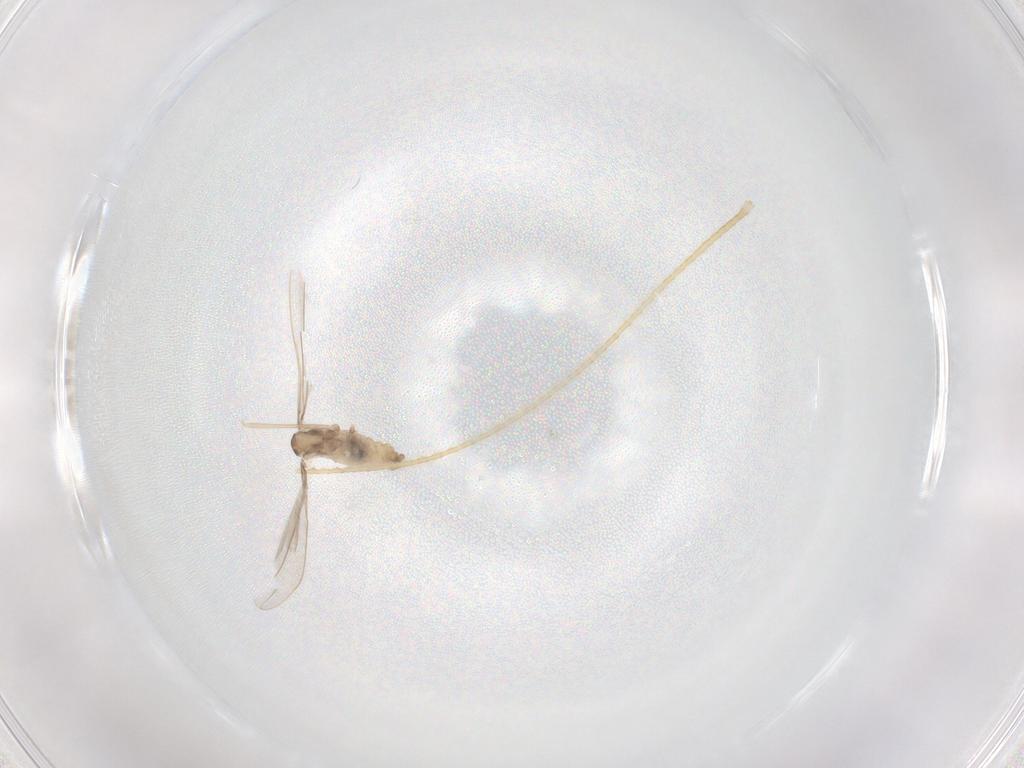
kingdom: Animalia
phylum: Arthropoda
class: Insecta
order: Diptera
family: Cecidomyiidae
